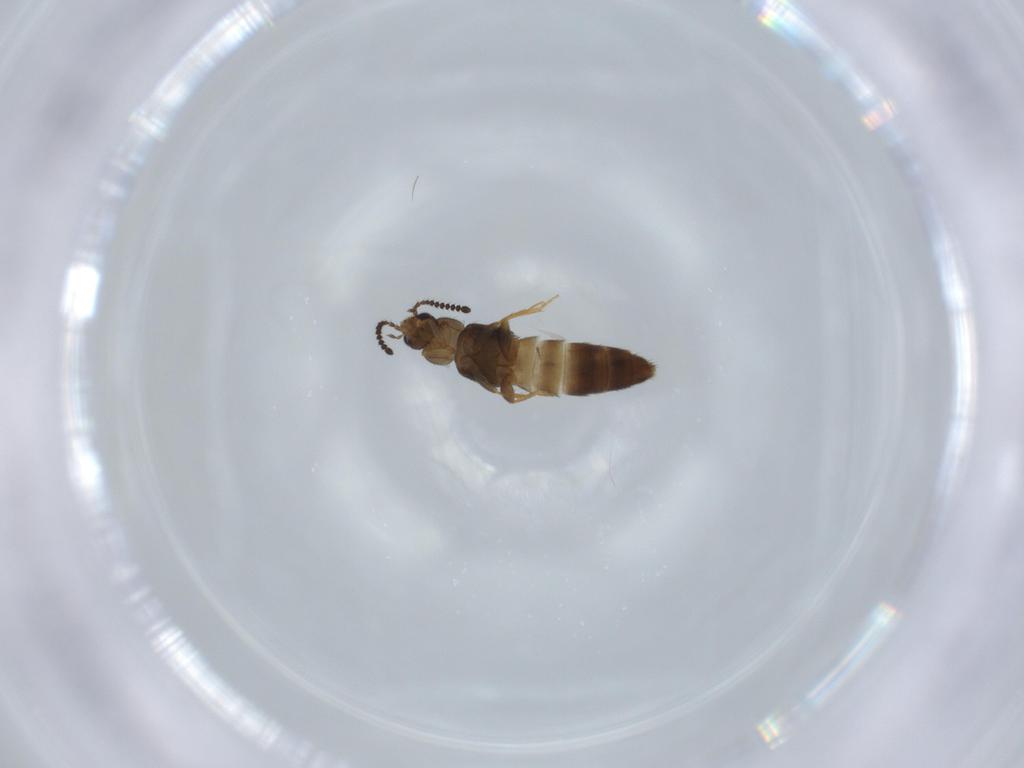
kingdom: Animalia
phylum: Arthropoda
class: Insecta
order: Coleoptera
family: Staphylinidae
